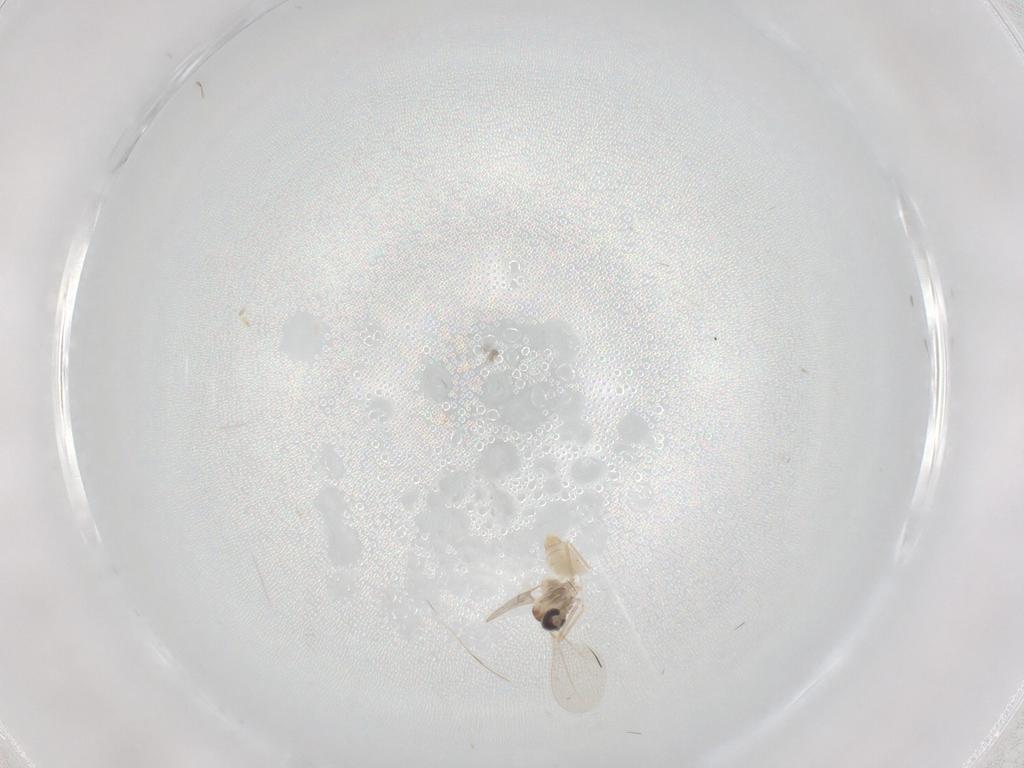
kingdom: Animalia
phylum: Arthropoda
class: Insecta
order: Diptera
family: Cecidomyiidae
